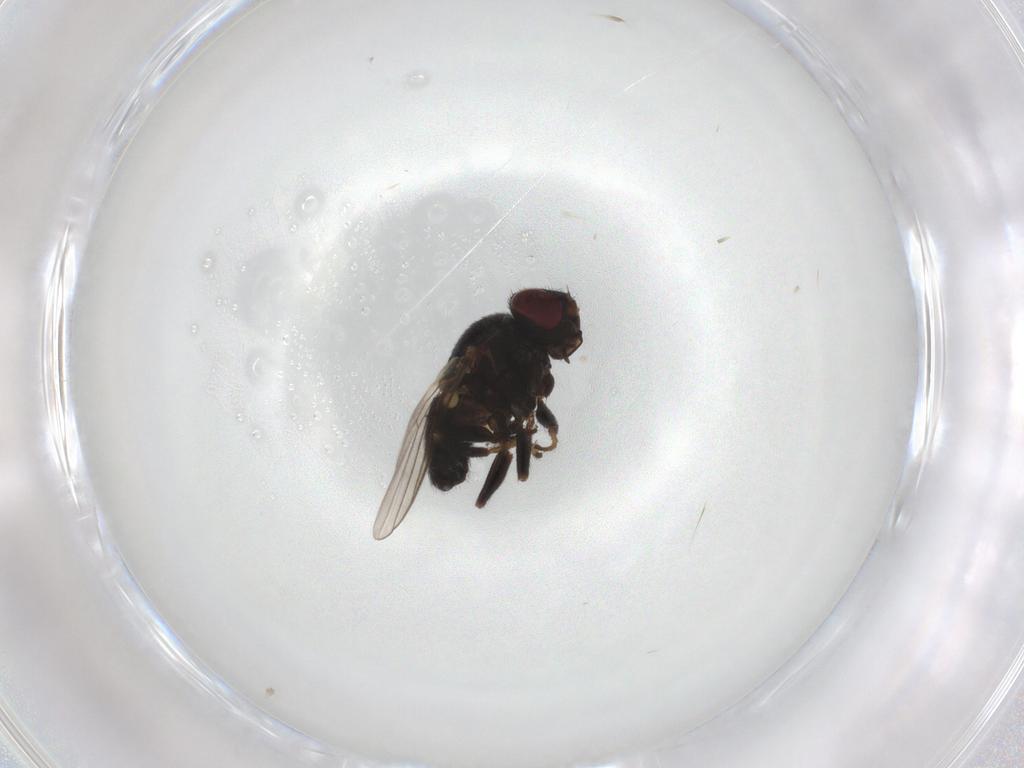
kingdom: Animalia
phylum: Arthropoda
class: Insecta
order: Diptera
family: Chloropidae
